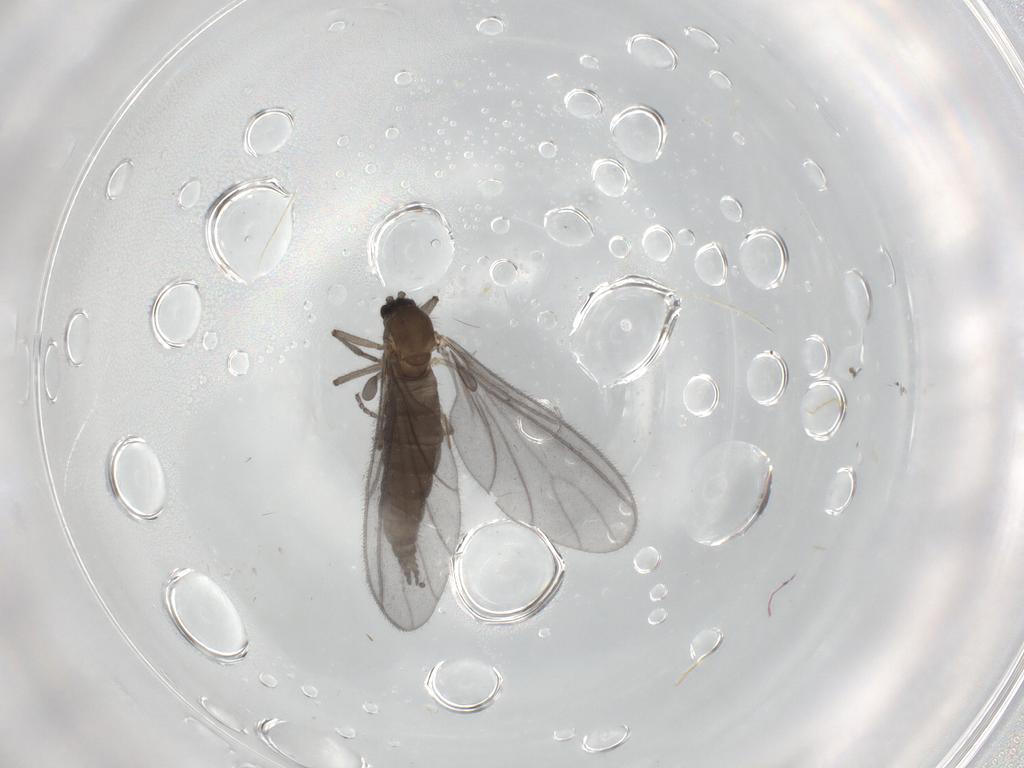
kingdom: Animalia
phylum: Arthropoda
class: Insecta
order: Diptera
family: Sciaridae
